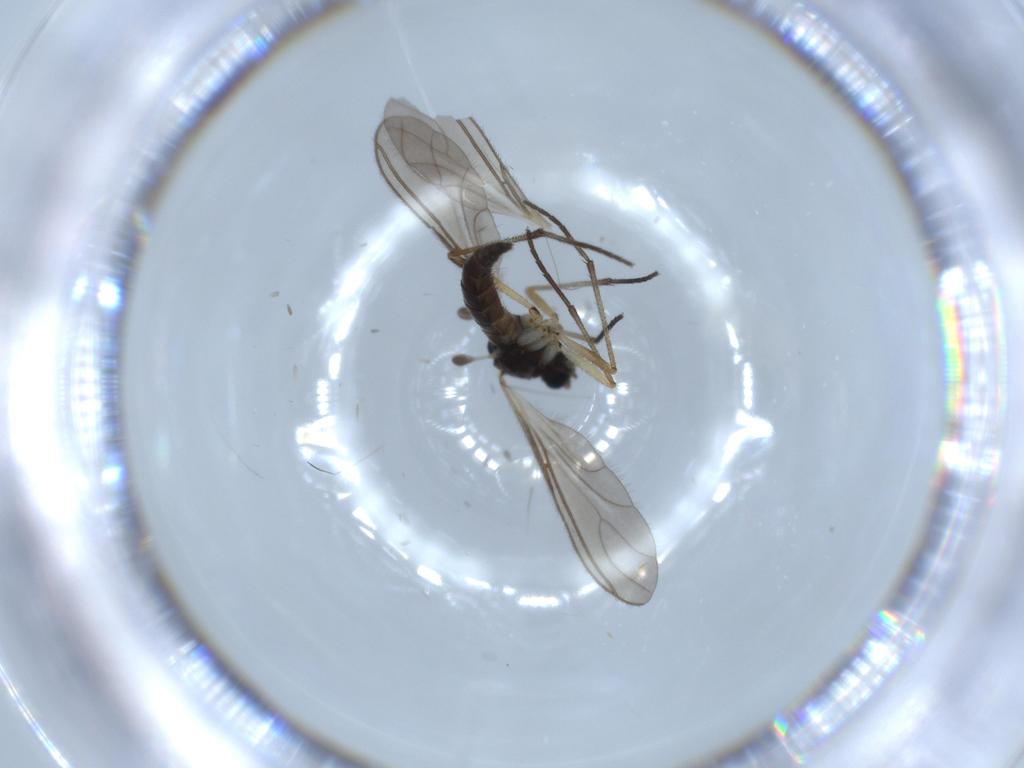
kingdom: Animalia
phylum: Arthropoda
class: Insecta
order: Diptera
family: Sciaridae
